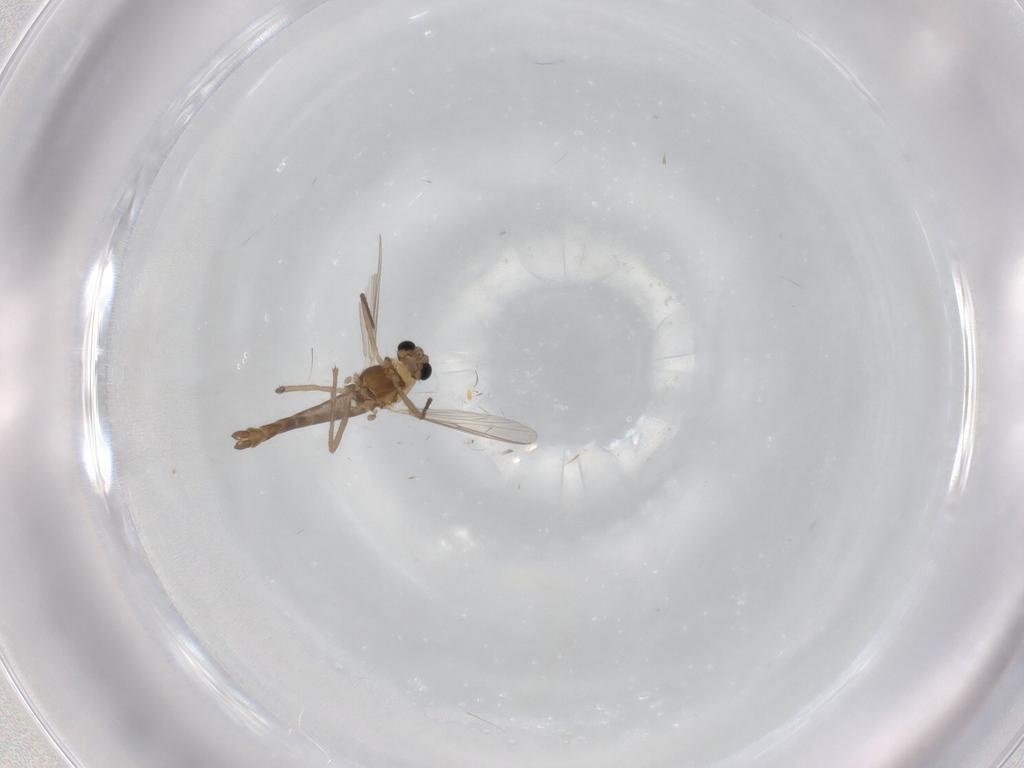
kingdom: Animalia
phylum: Arthropoda
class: Insecta
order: Diptera
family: Chironomidae
